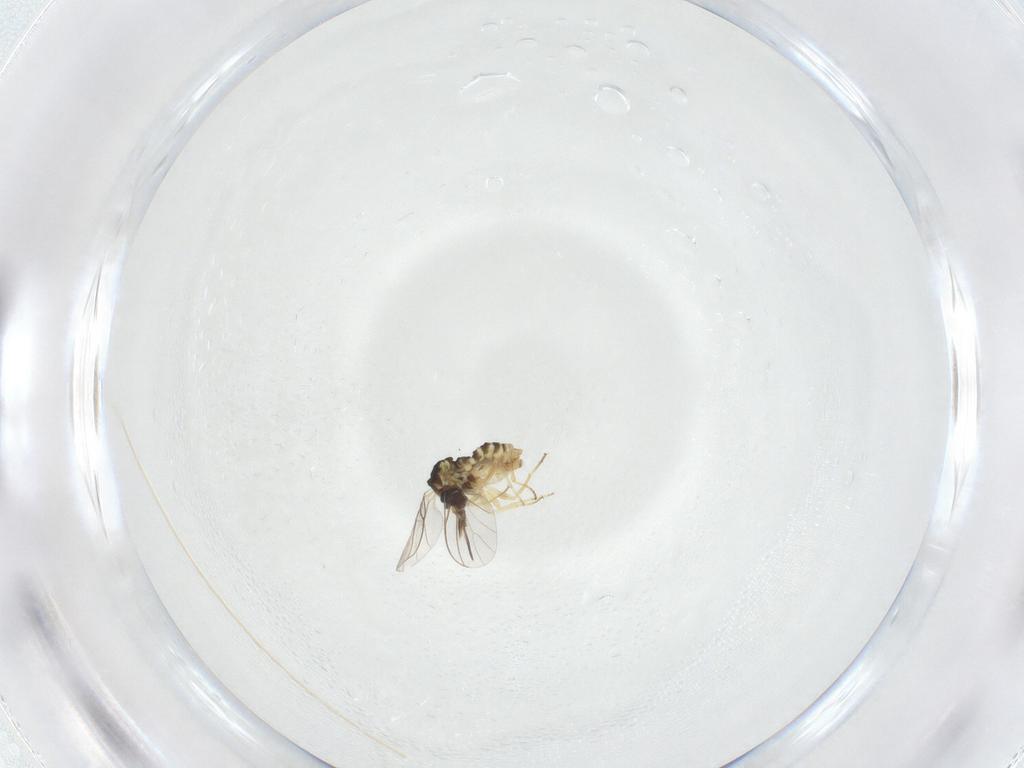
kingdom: Animalia
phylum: Arthropoda
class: Insecta
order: Diptera
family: Mythicomyiidae
